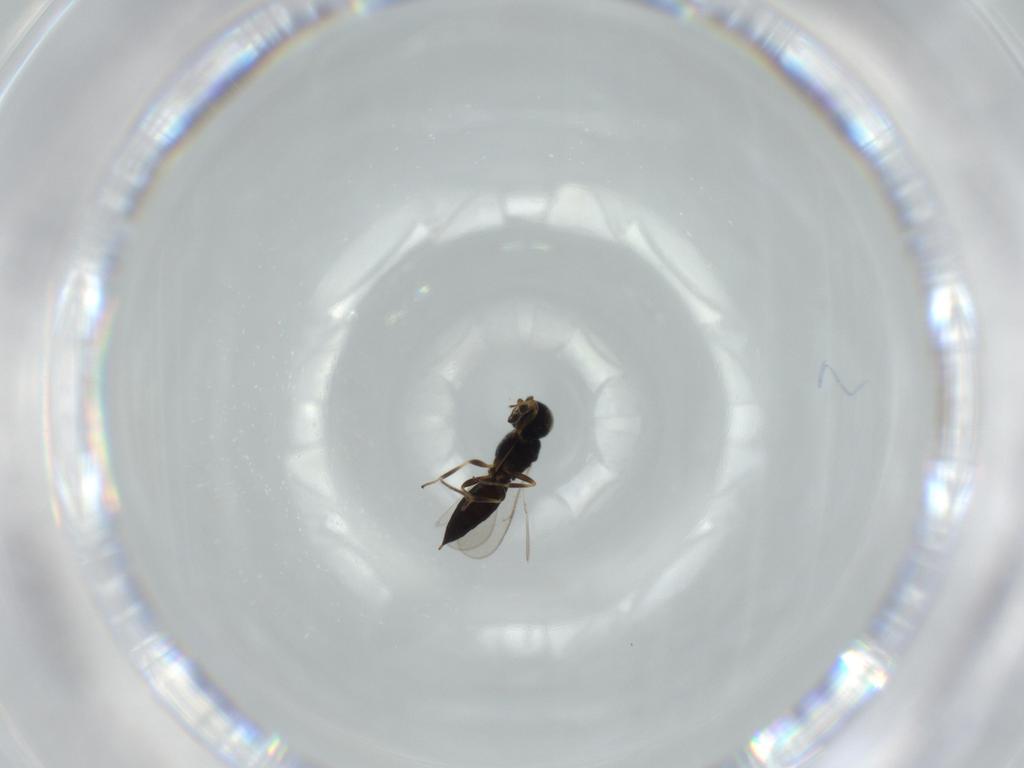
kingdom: Animalia
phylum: Arthropoda
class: Insecta
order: Hymenoptera
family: Scelionidae
